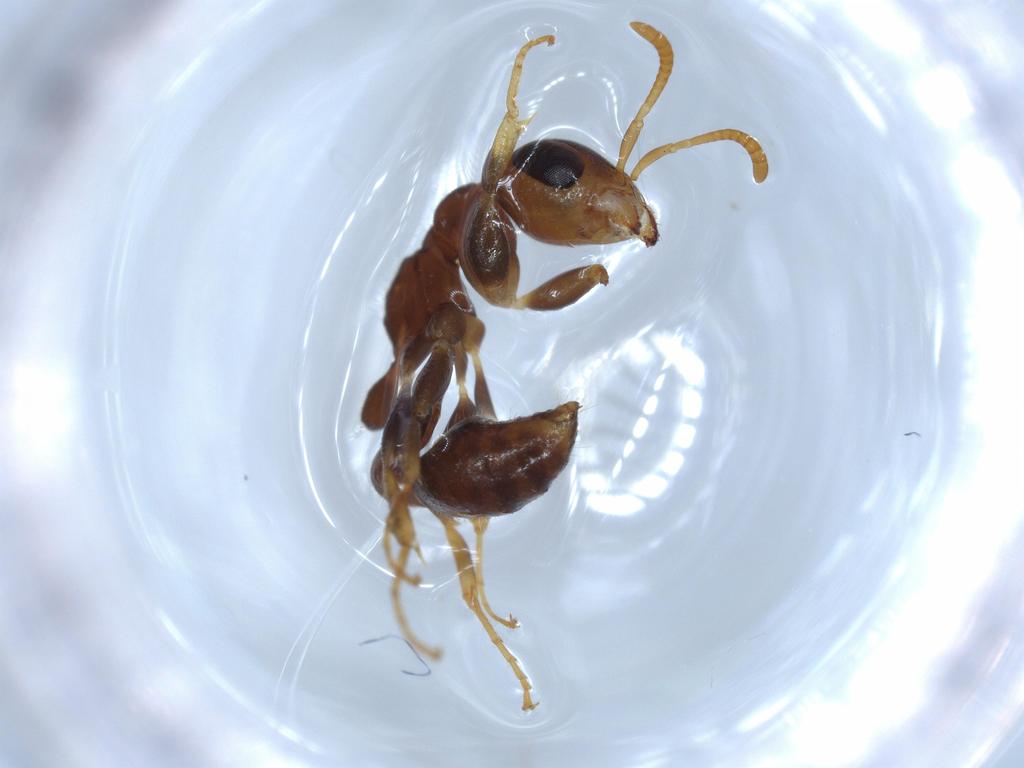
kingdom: Animalia
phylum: Arthropoda
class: Insecta
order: Hymenoptera
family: Formicidae
